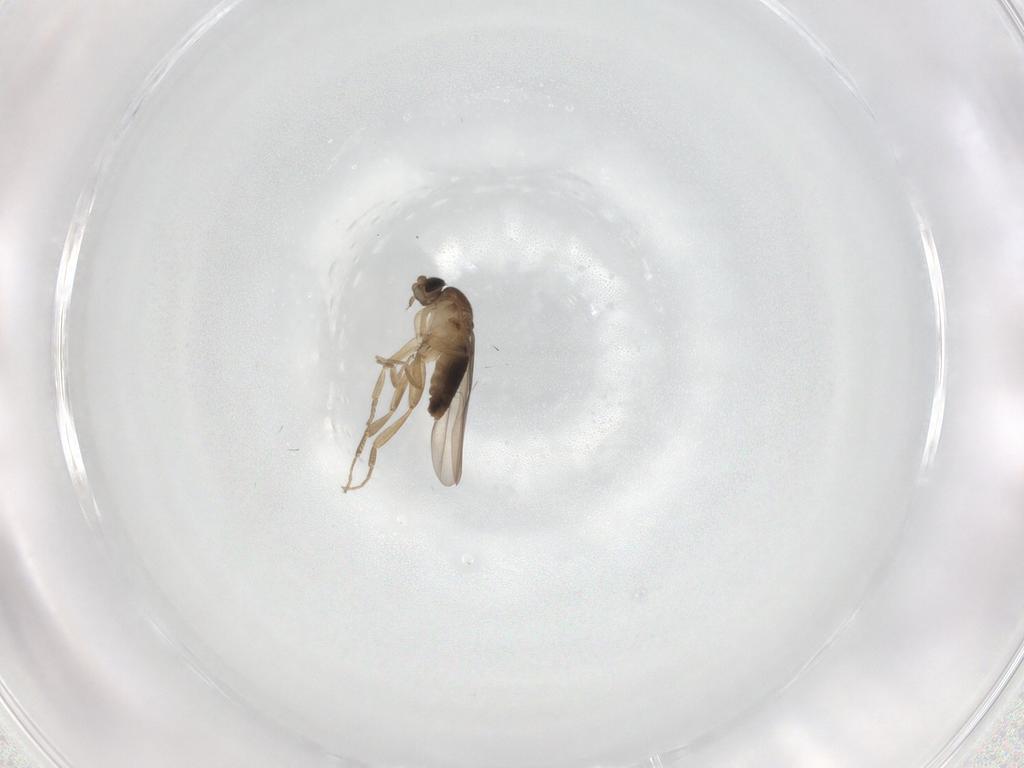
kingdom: Animalia
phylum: Arthropoda
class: Insecta
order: Diptera
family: Phoridae
